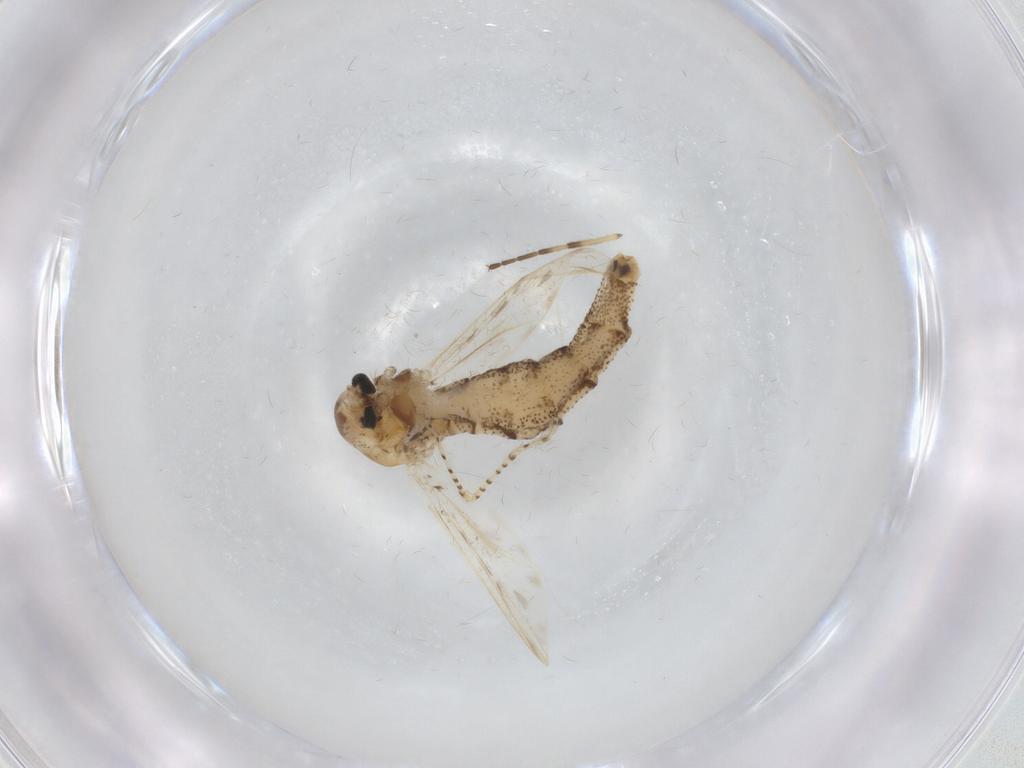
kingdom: Animalia
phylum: Arthropoda
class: Insecta
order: Diptera
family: Chaoboridae
